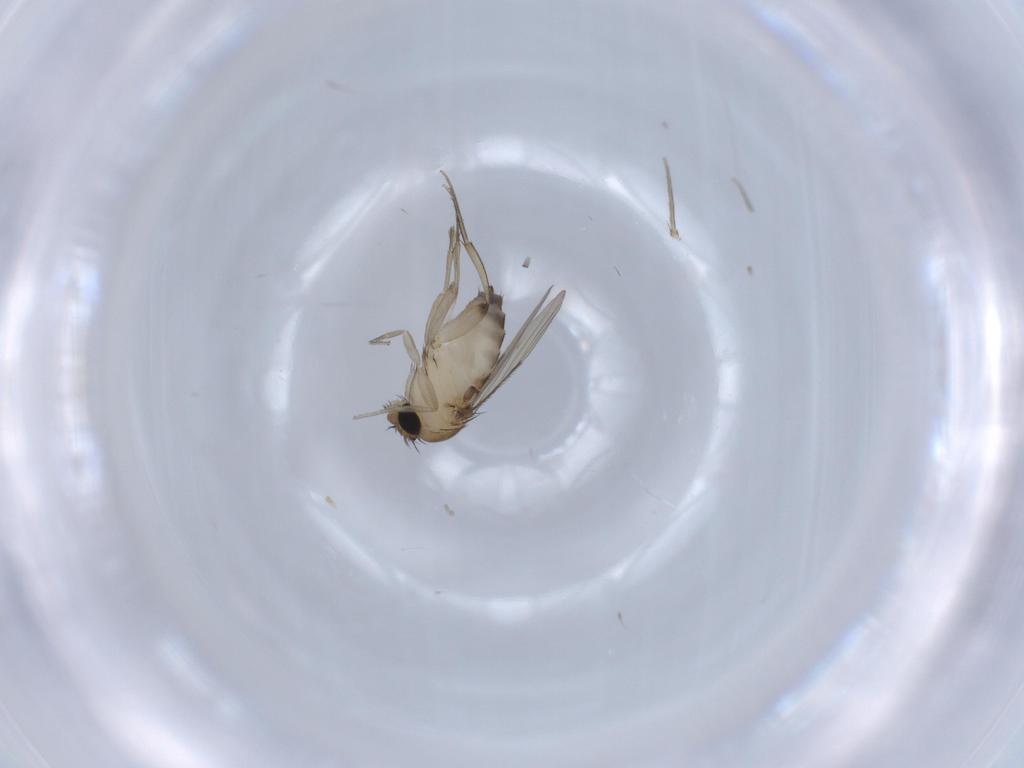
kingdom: Animalia
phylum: Arthropoda
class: Insecta
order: Diptera
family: Phoridae
